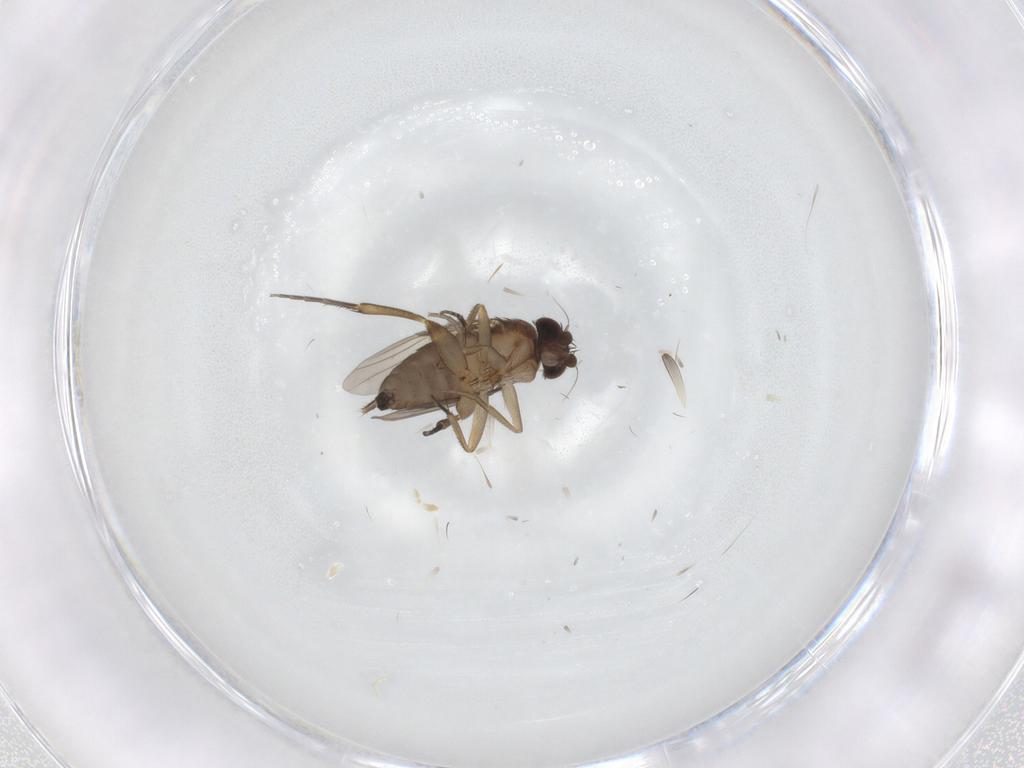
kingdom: Animalia
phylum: Arthropoda
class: Insecta
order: Diptera
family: Phoridae
